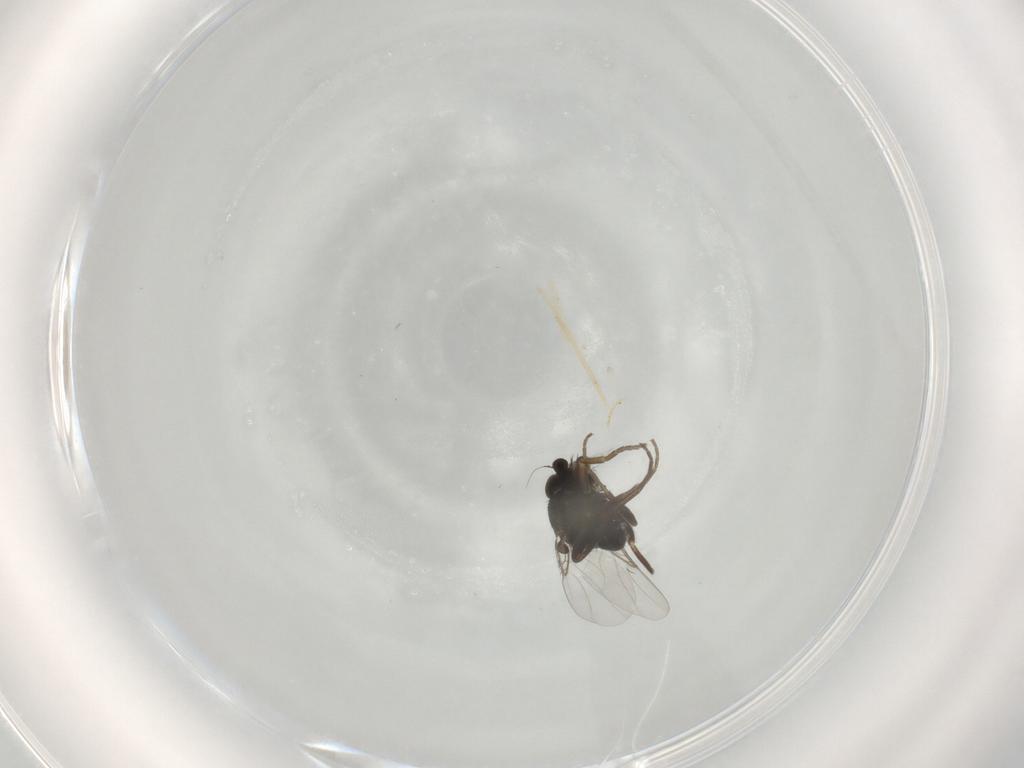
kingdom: Animalia
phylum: Arthropoda
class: Insecta
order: Diptera
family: Phoridae
